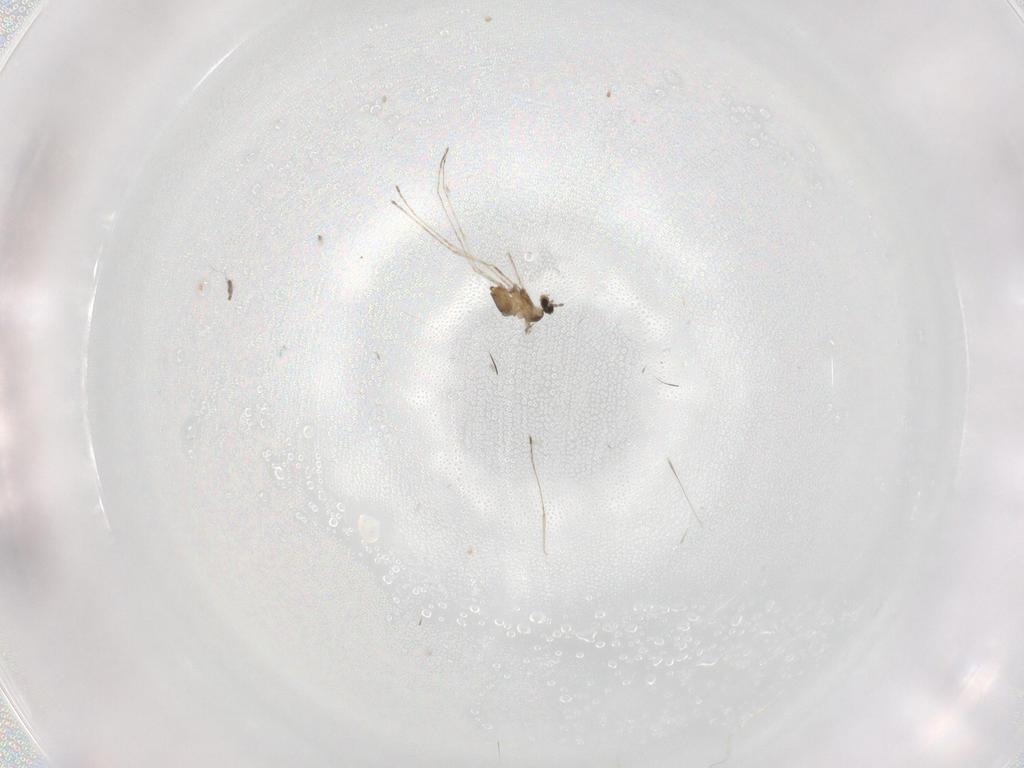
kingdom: Animalia
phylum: Arthropoda
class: Insecta
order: Diptera
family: Cecidomyiidae
